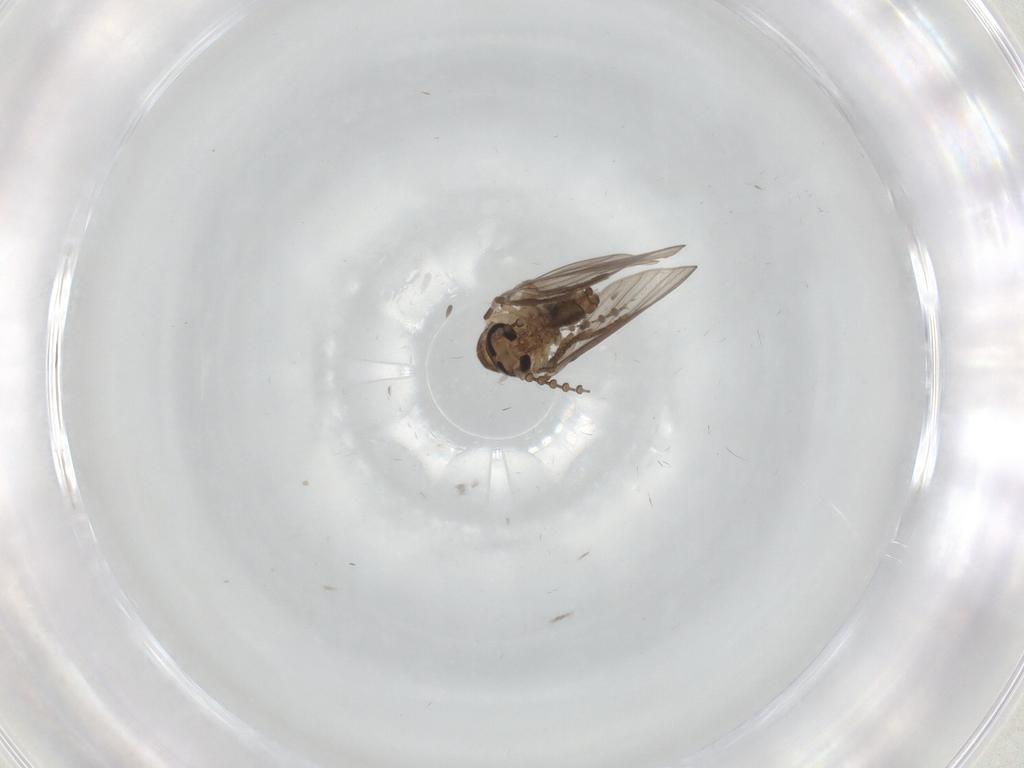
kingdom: Animalia
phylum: Arthropoda
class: Insecta
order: Diptera
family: Psychodidae
